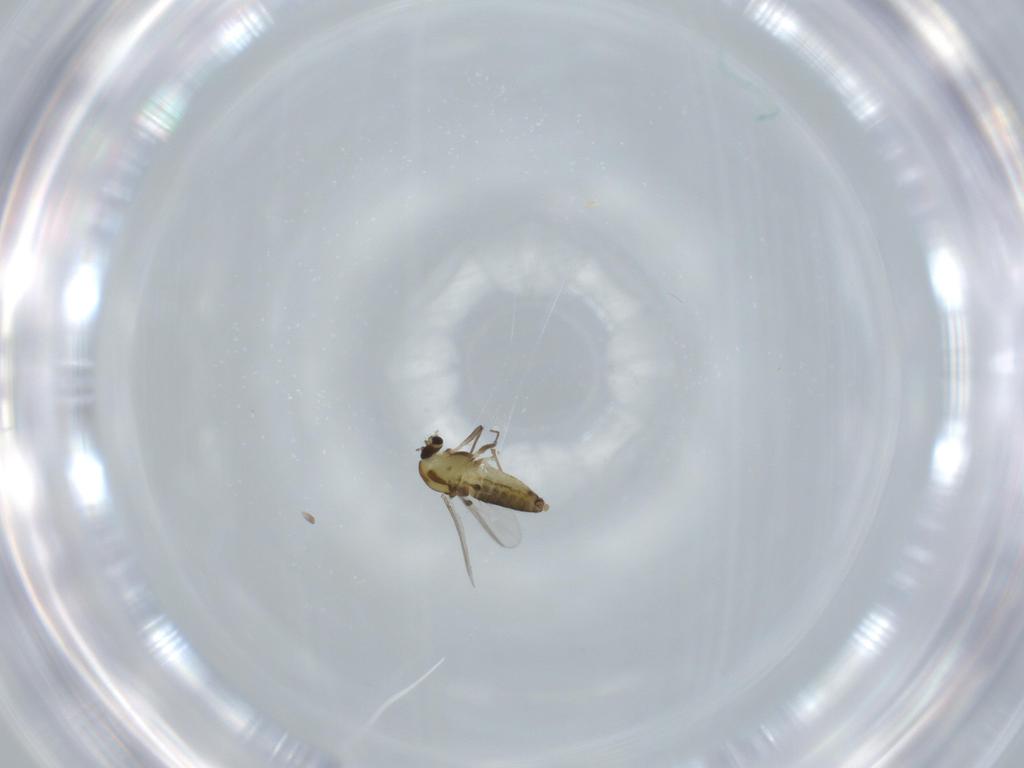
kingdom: Animalia
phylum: Arthropoda
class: Insecta
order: Diptera
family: Chironomidae
